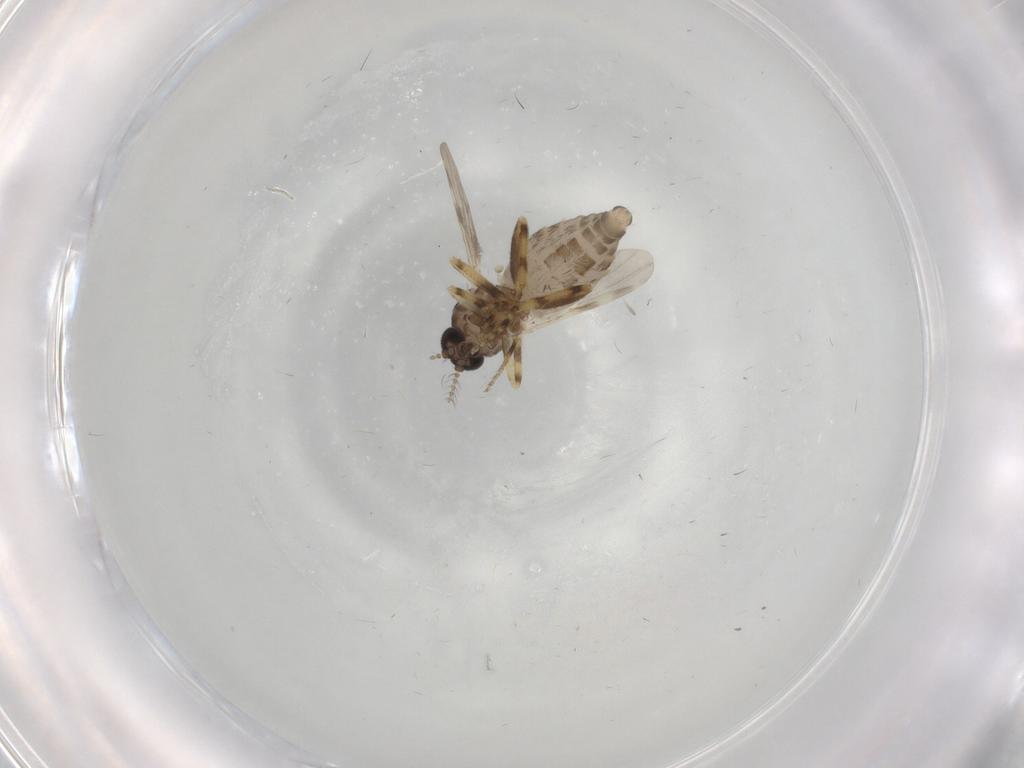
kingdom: Animalia
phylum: Arthropoda
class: Insecta
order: Diptera
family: Ceratopogonidae
